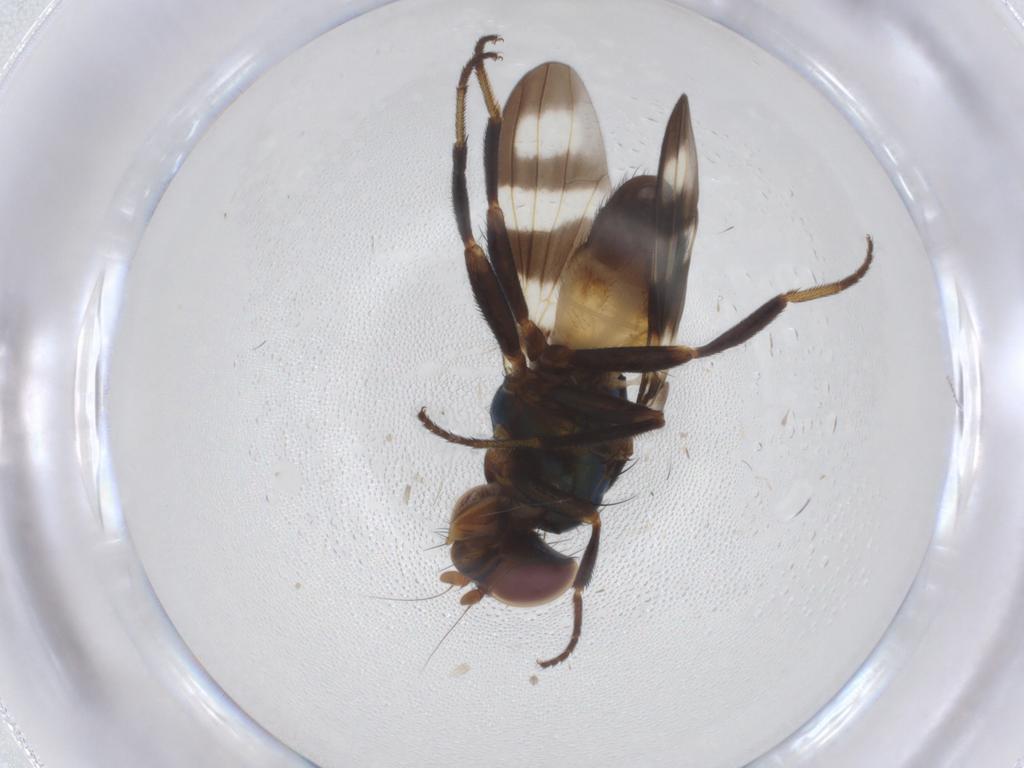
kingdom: Animalia
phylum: Arthropoda
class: Insecta
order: Diptera
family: Ulidiidae
